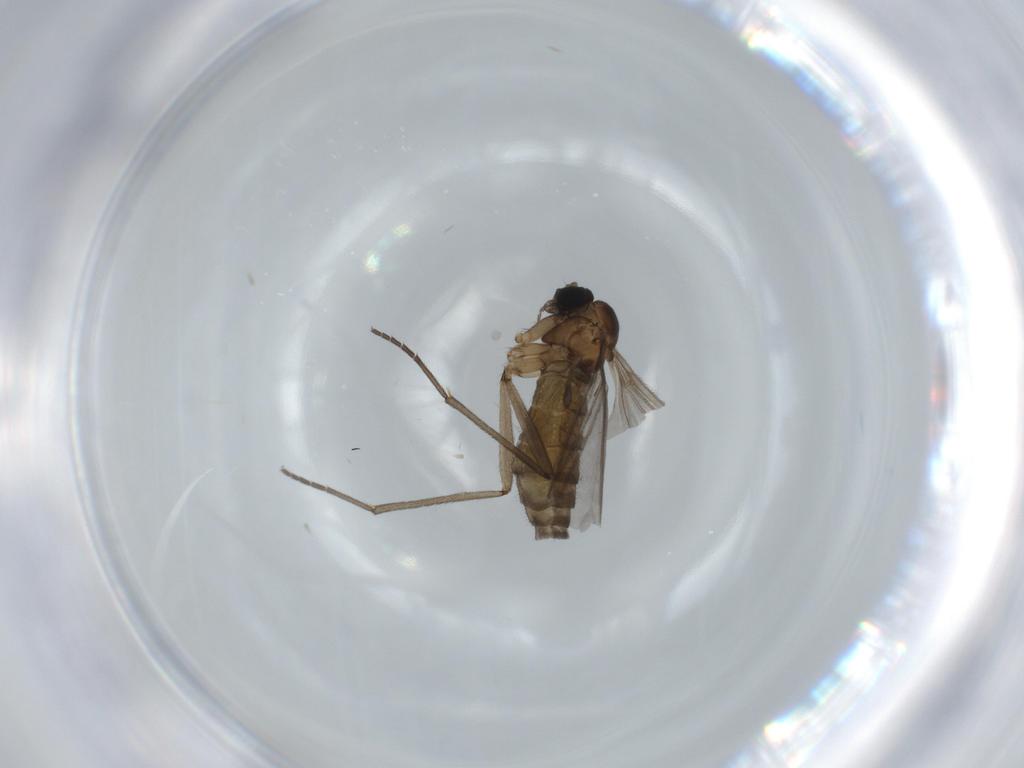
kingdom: Animalia
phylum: Arthropoda
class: Insecta
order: Diptera
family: Sciaridae
